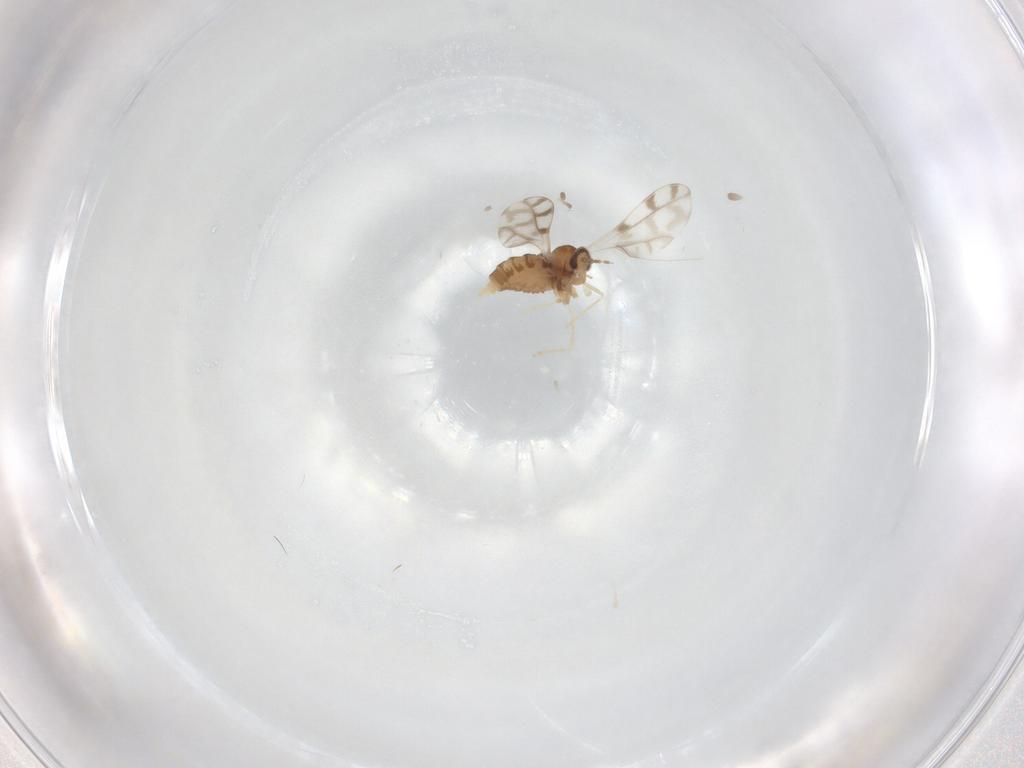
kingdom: Animalia
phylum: Arthropoda
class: Insecta
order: Diptera
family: Cecidomyiidae
